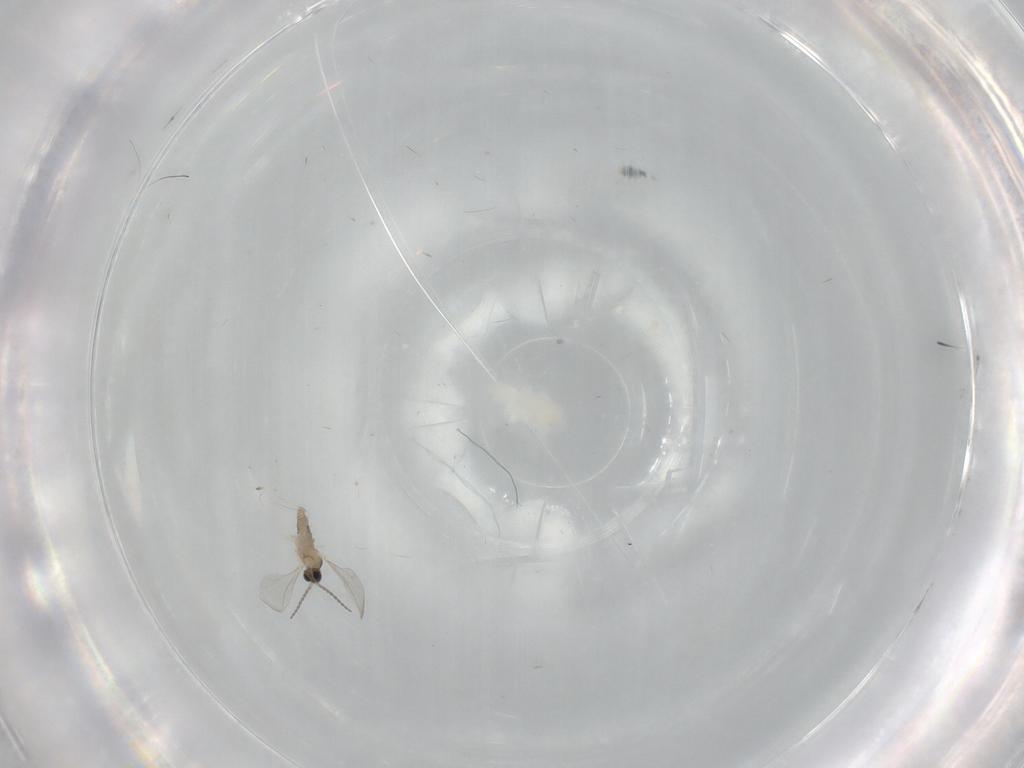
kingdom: Animalia
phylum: Arthropoda
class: Insecta
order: Diptera
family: Cecidomyiidae
